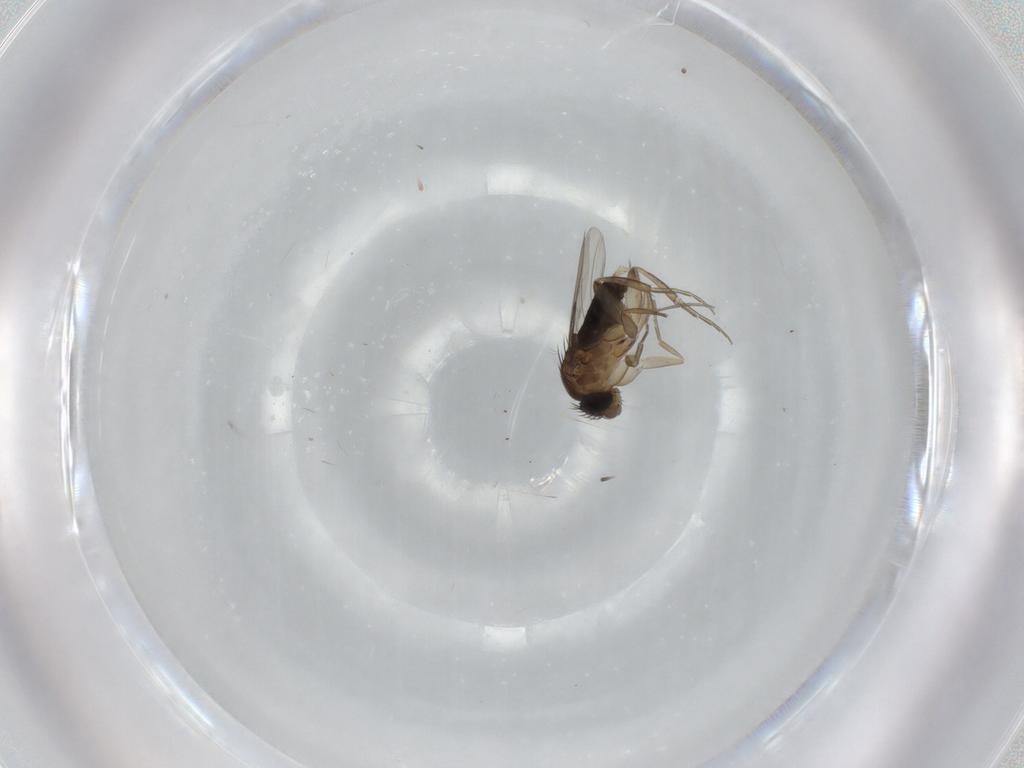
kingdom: Animalia
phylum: Arthropoda
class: Insecta
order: Diptera
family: Phoridae
